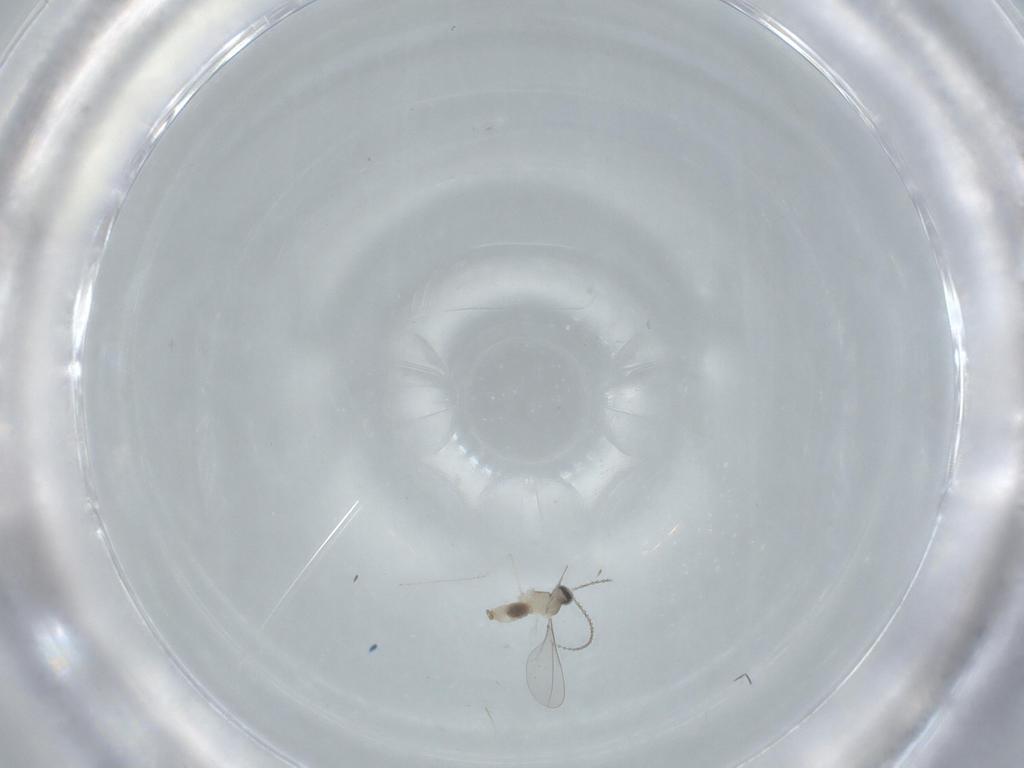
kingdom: Animalia
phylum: Arthropoda
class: Insecta
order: Diptera
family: Cecidomyiidae
